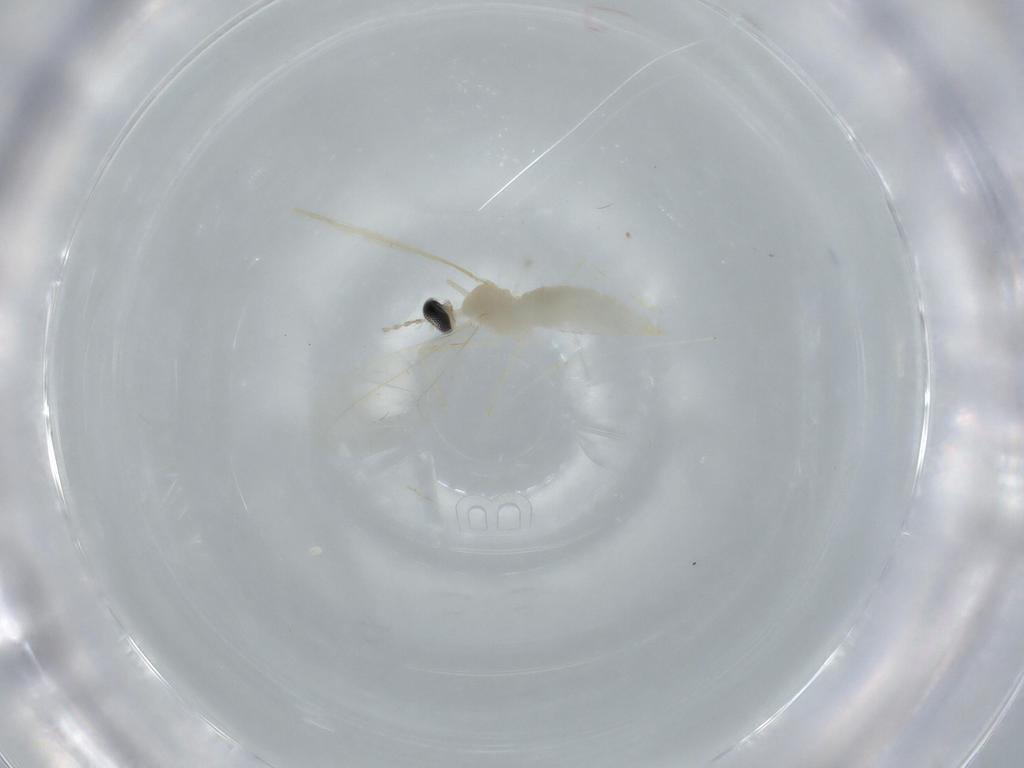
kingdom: Animalia
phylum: Arthropoda
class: Insecta
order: Diptera
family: Cecidomyiidae
